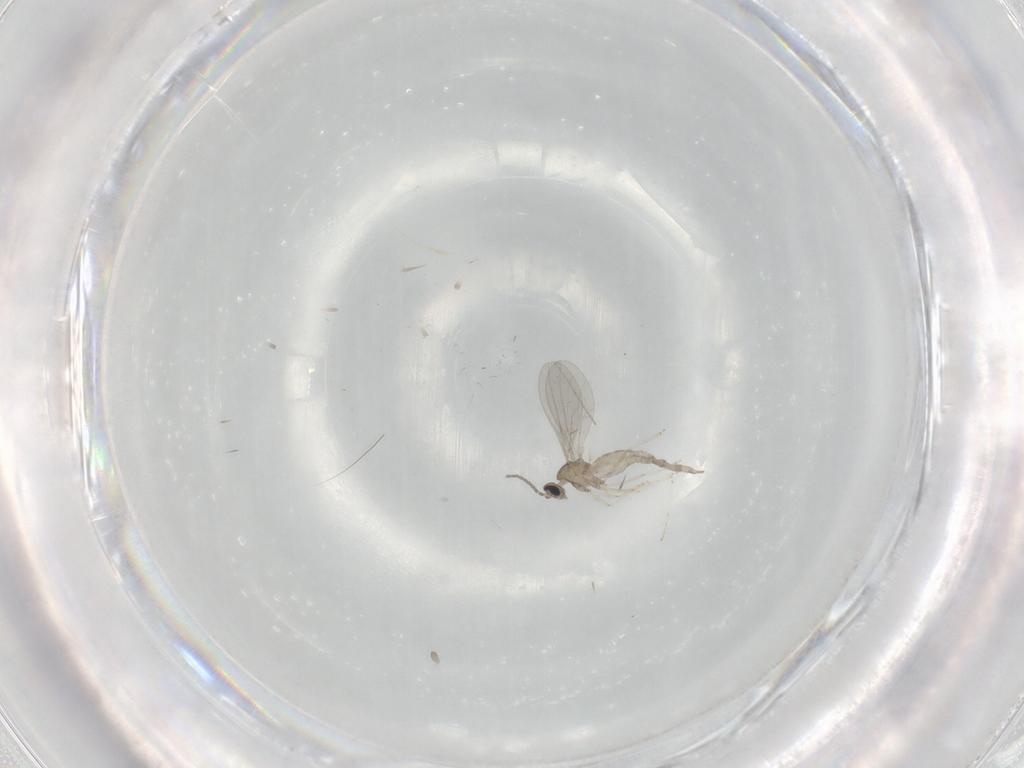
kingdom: Animalia
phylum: Arthropoda
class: Insecta
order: Diptera
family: Cecidomyiidae
